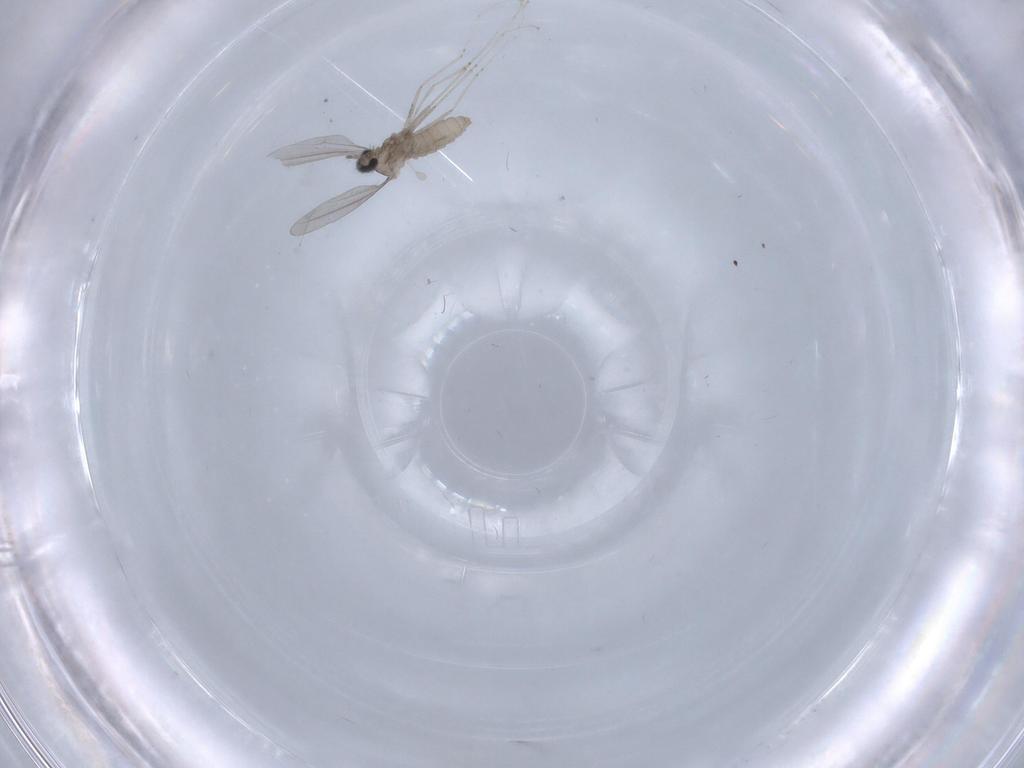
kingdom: Animalia
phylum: Arthropoda
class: Insecta
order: Diptera
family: Cecidomyiidae
